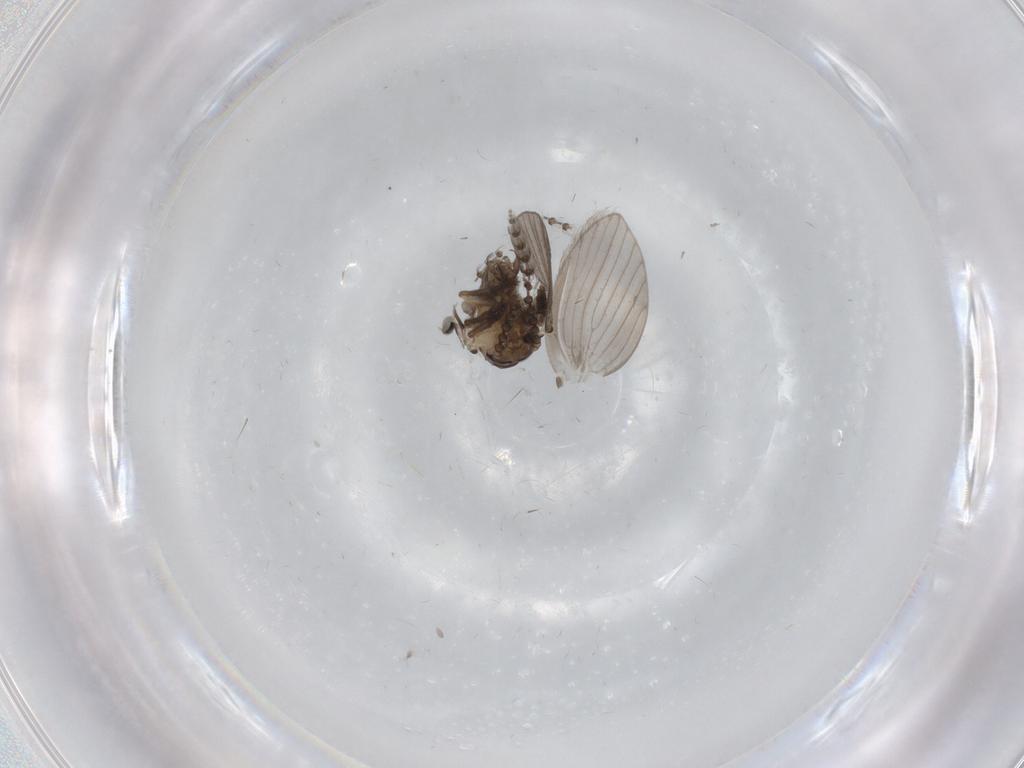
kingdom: Animalia
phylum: Arthropoda
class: Insecta
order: Diptera
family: Psychodidae
